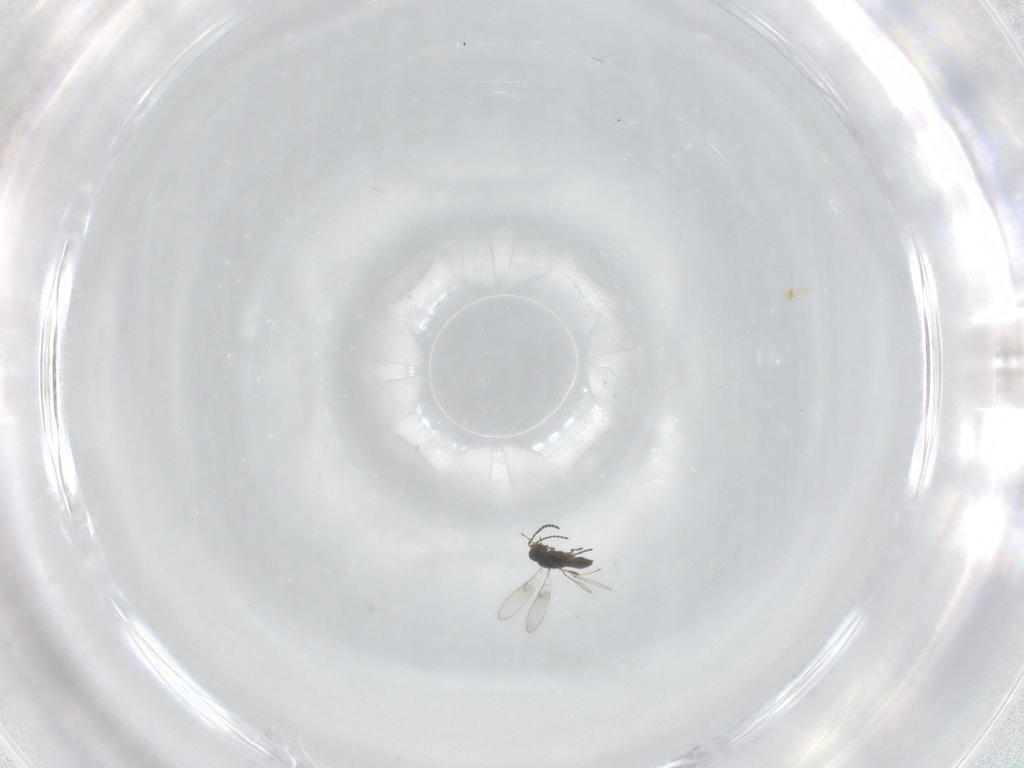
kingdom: Animalia
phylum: Arthropoda
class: Insecta
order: Hymenoptera
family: Scelionidae
